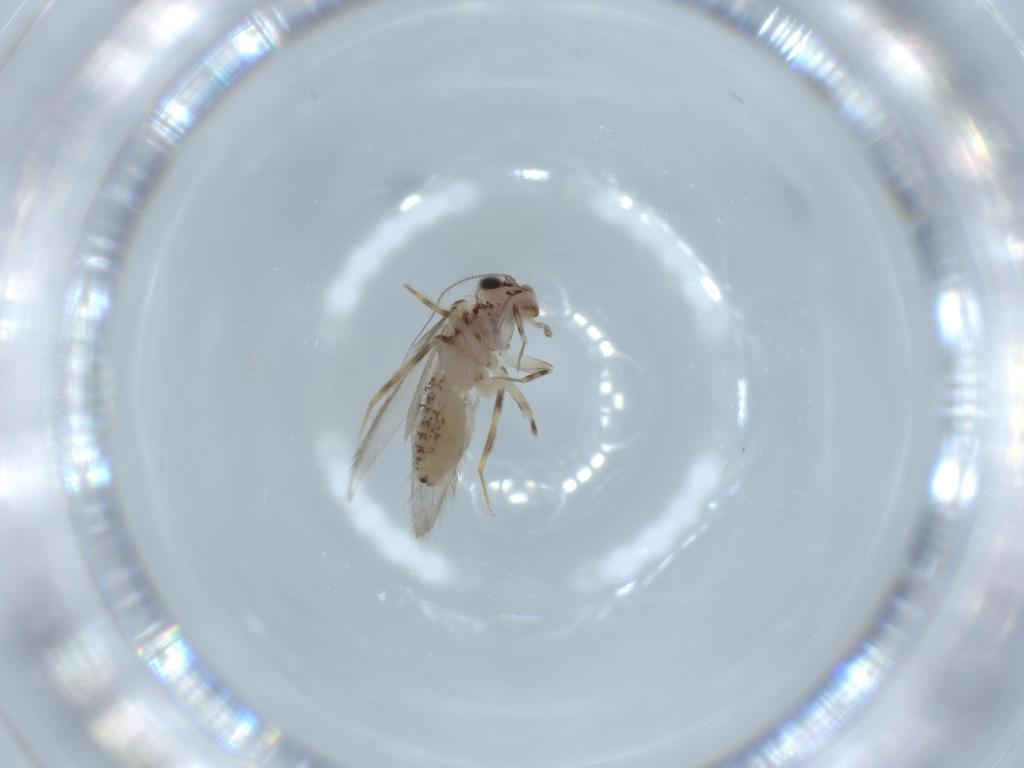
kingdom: Animalia
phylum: Arthropoda
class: Insecta
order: Psocodea
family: Lepidopsocidae
